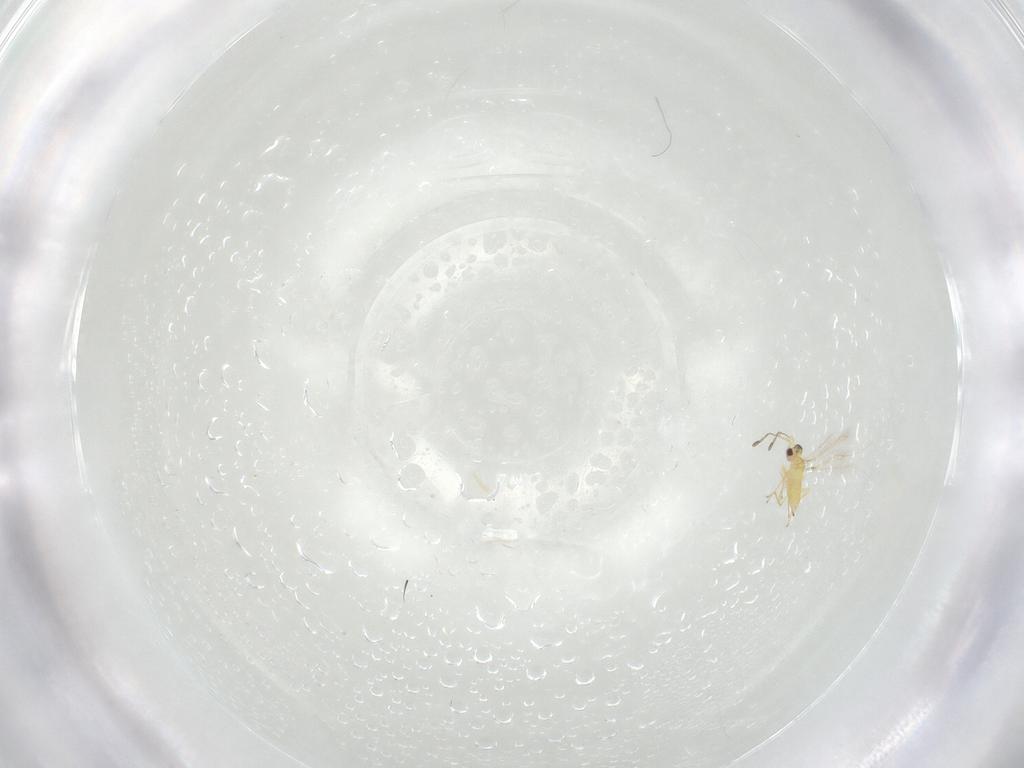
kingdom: Animalia
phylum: Arthropoda
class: Insecta
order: Hymenoptera
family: Mymaridae
